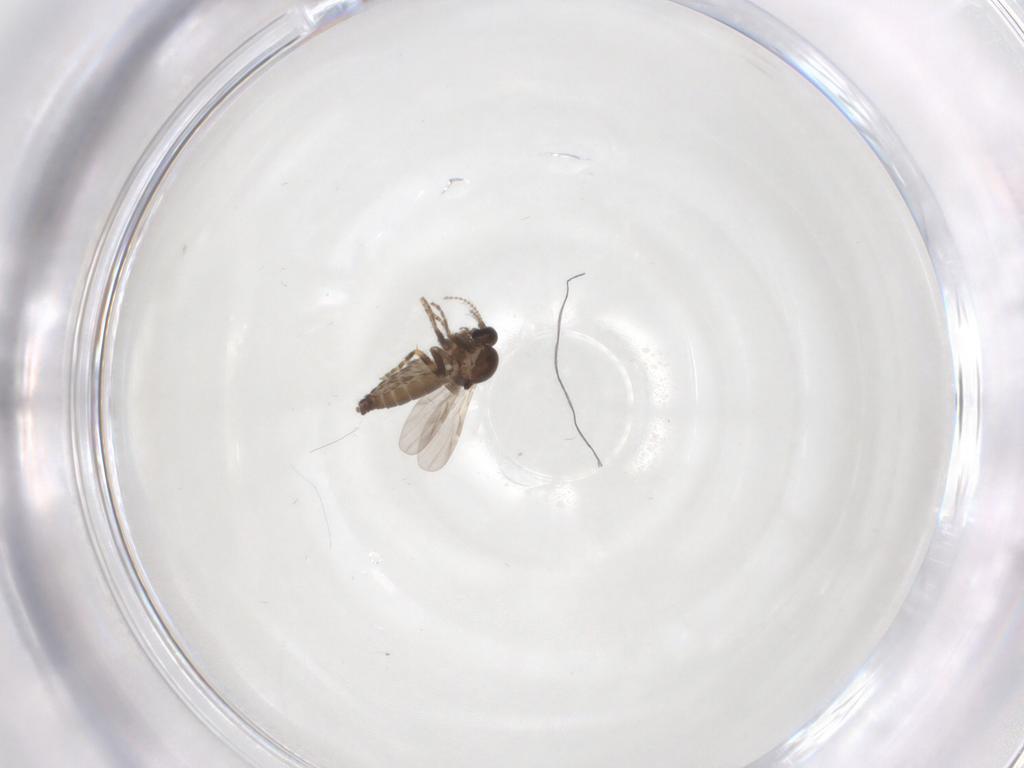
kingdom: Animalia
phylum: Arthropoda
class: Insecta
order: Diptera
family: Ceratopogonidae
